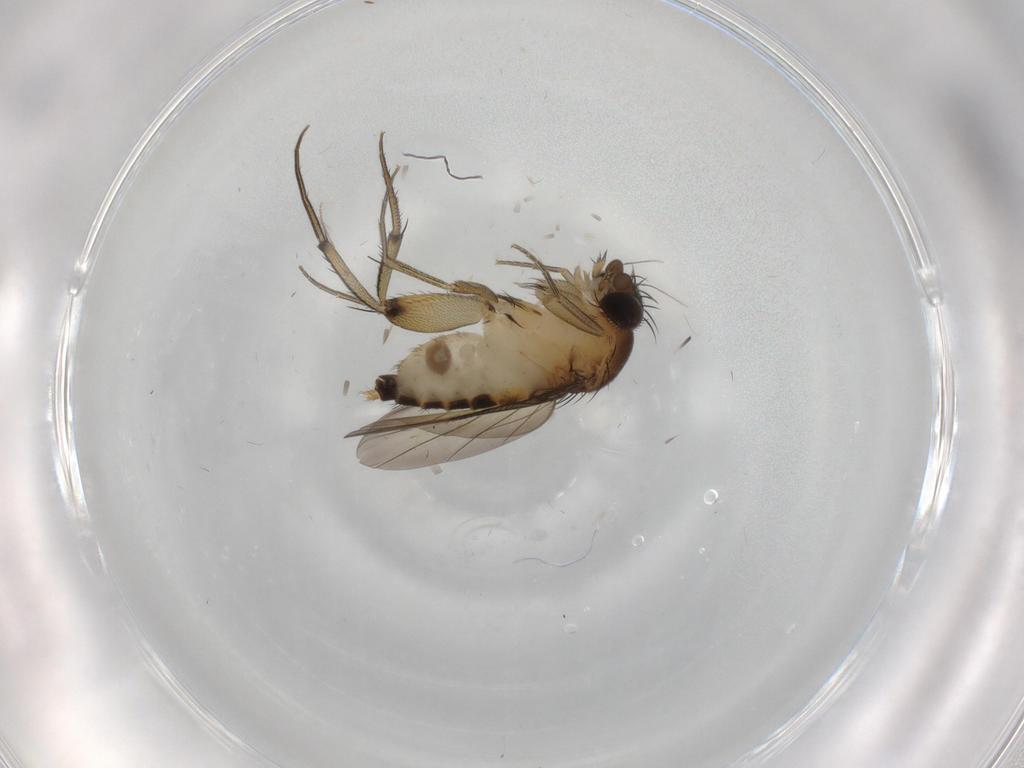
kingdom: Animalia
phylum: Arthropoda
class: Insecta
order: Diptera
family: Phoridae
